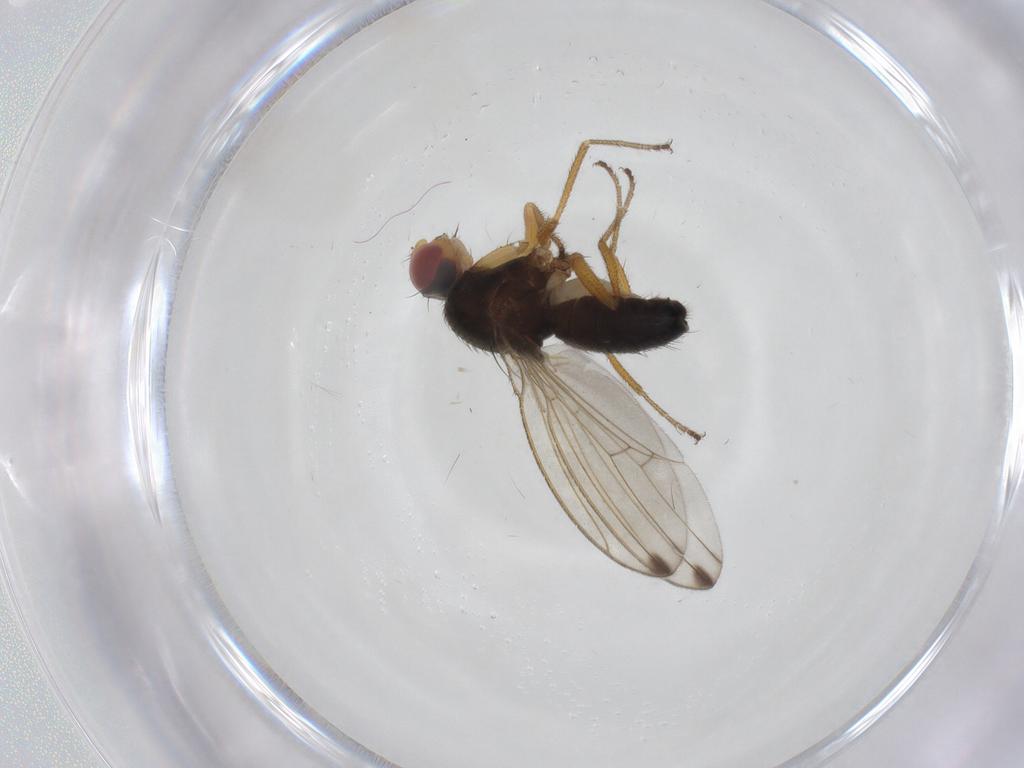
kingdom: Animalia
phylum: Arthropoda
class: Insecta
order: Diptera
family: Drosophilidae
